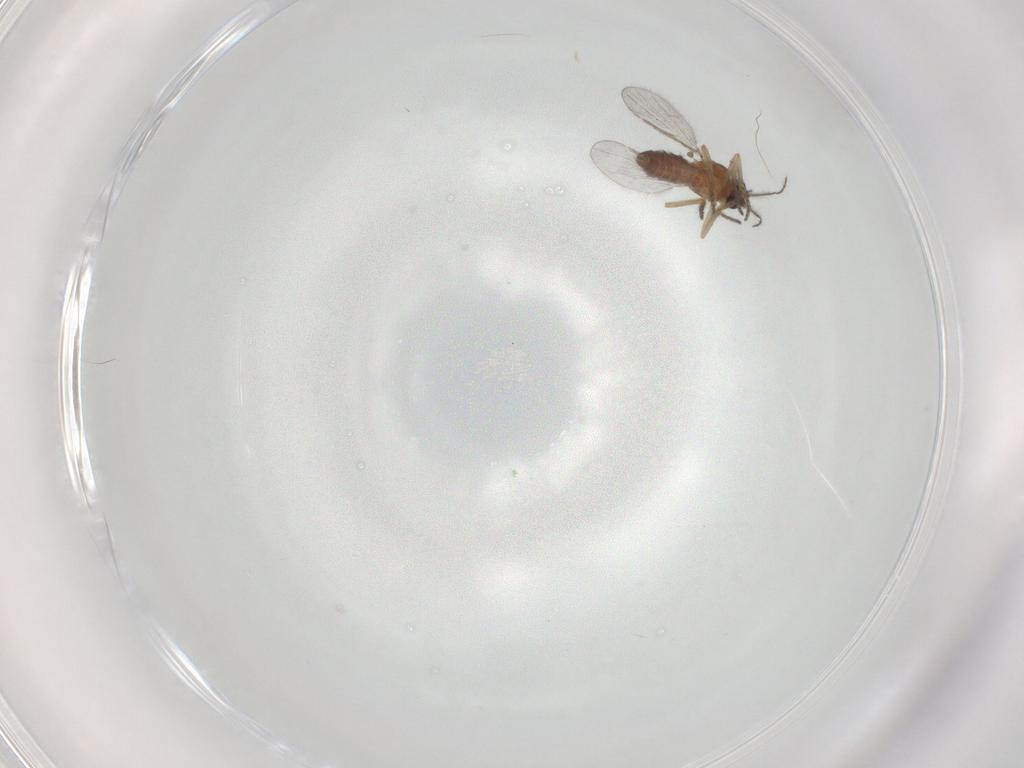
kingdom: Animalia
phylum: Arthropoda
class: Insecta
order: Diptera
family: Ceratopogonidae
